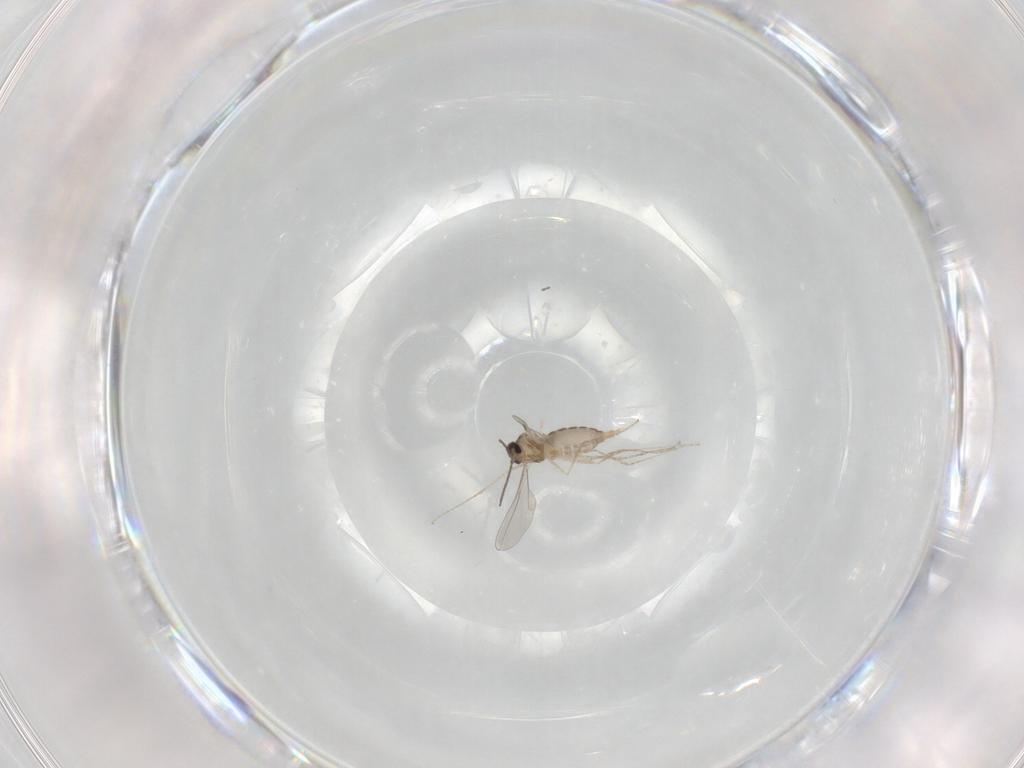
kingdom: Animalia
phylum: Arthropoda
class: Insecta
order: Diptera
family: Cecidomyiidae
